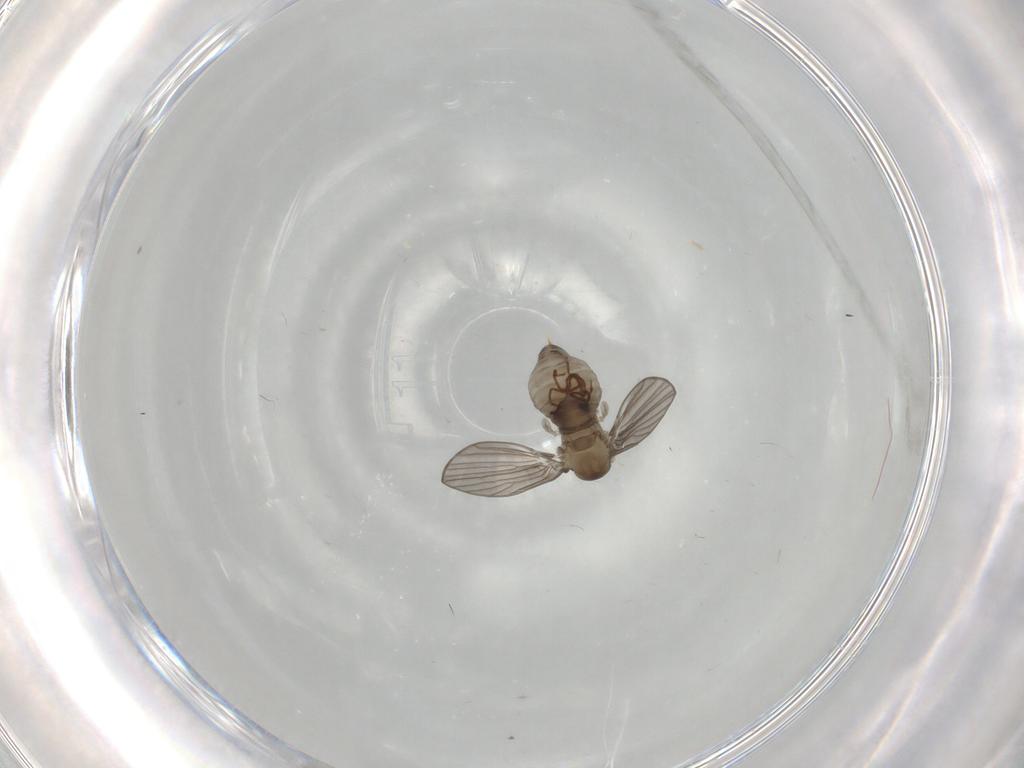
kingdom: Animalia
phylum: Arthropoda
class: Insecta
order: Diptera
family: Psychodidae
